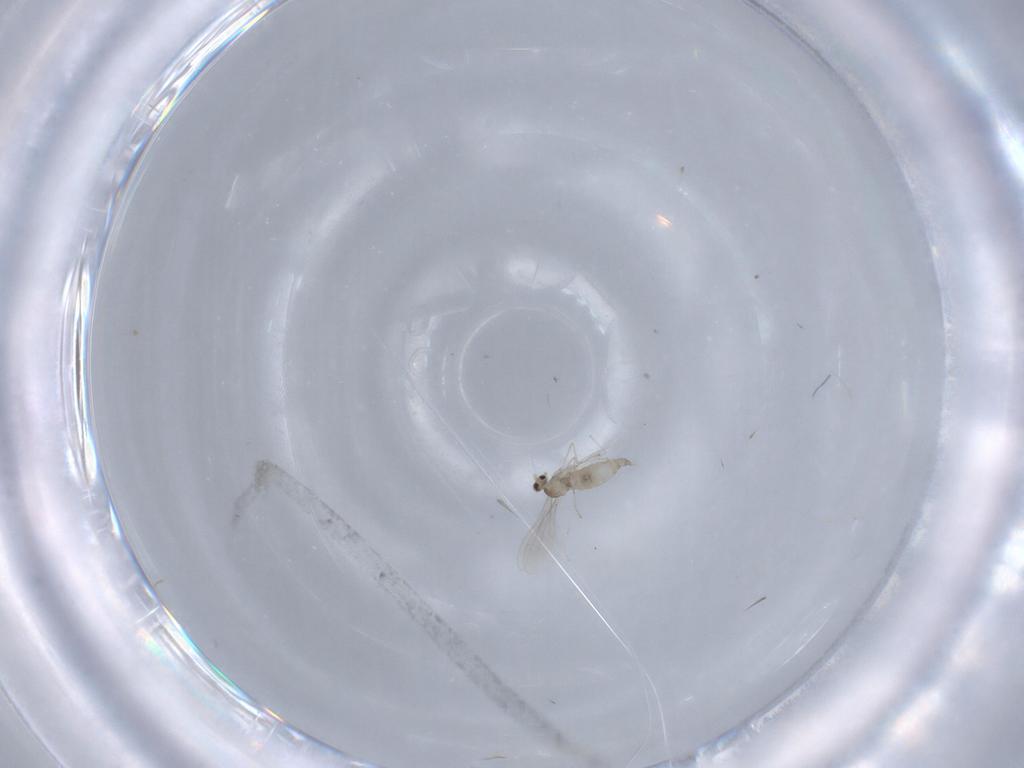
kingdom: Animalia
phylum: Arthropoda
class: Insecta
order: Diptera
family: Cecidomyiidae
